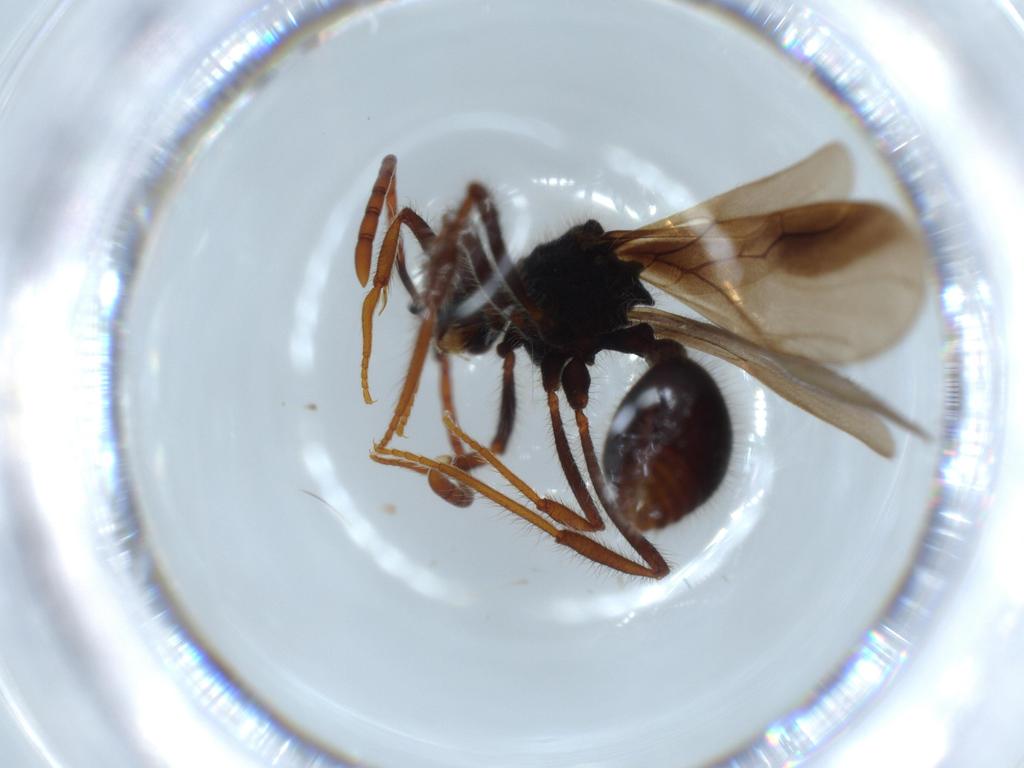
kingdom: Animalia
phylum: Arthropoda
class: Insecta
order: Hymenoptera
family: Formicidae
